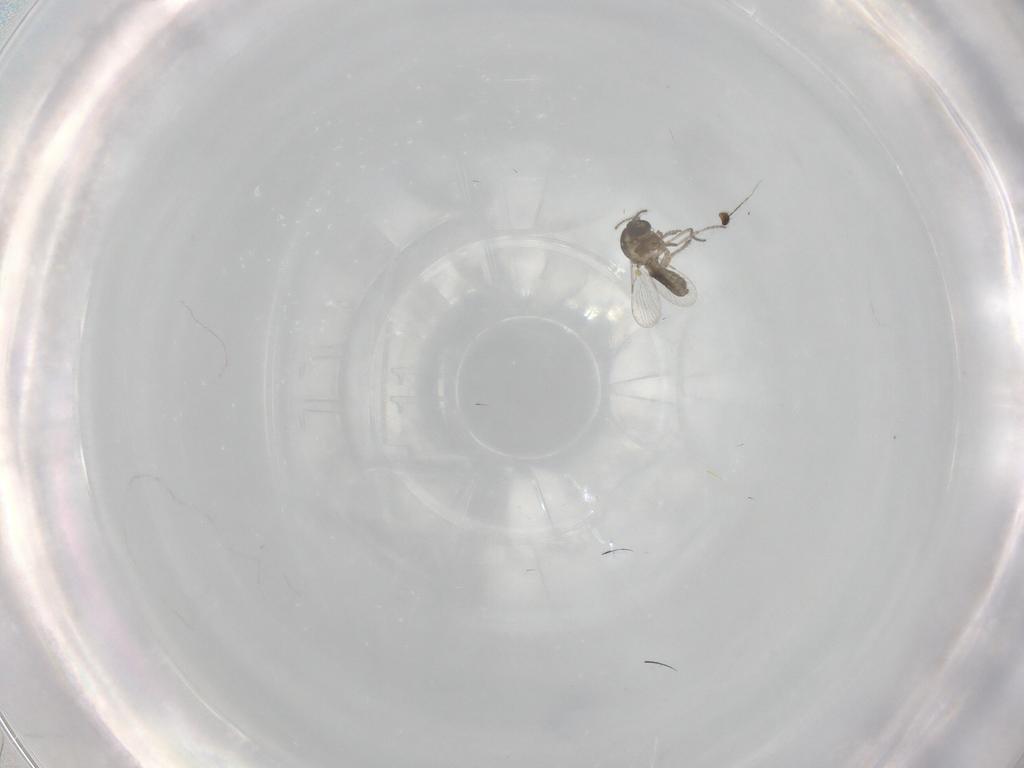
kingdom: Animalia
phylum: Arthropoda
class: Insecta
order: Diptera
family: Ceratopogonidae
